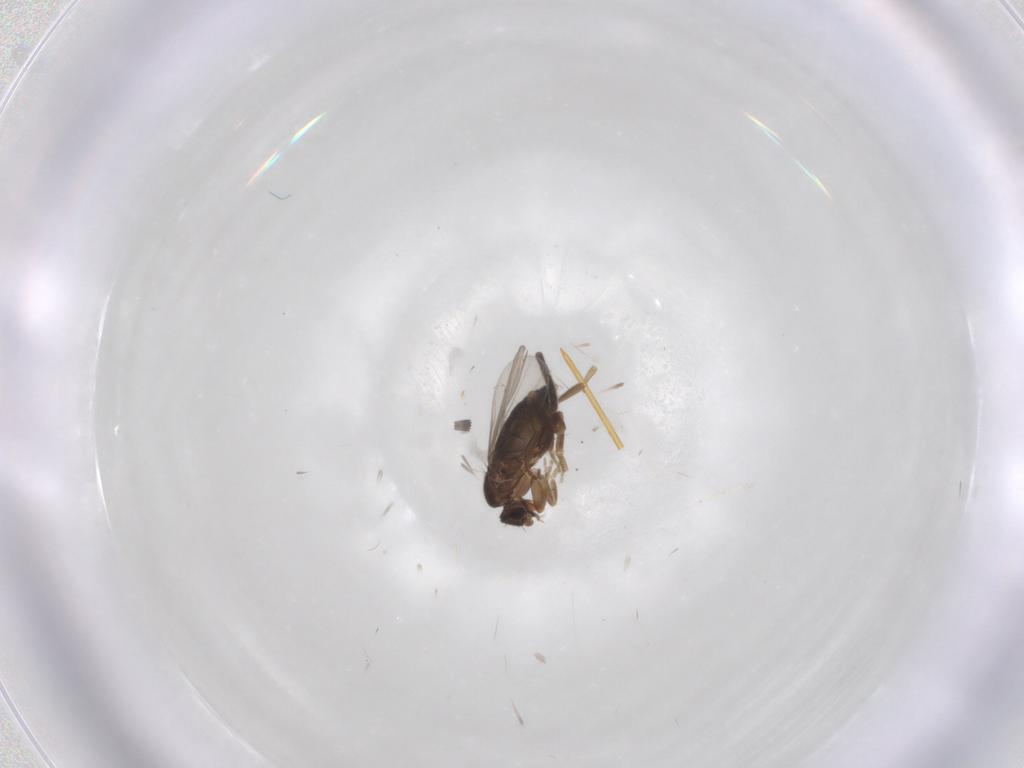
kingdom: Animalia
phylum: Arthropoda
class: Insecta
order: Diptera
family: Phoridae
